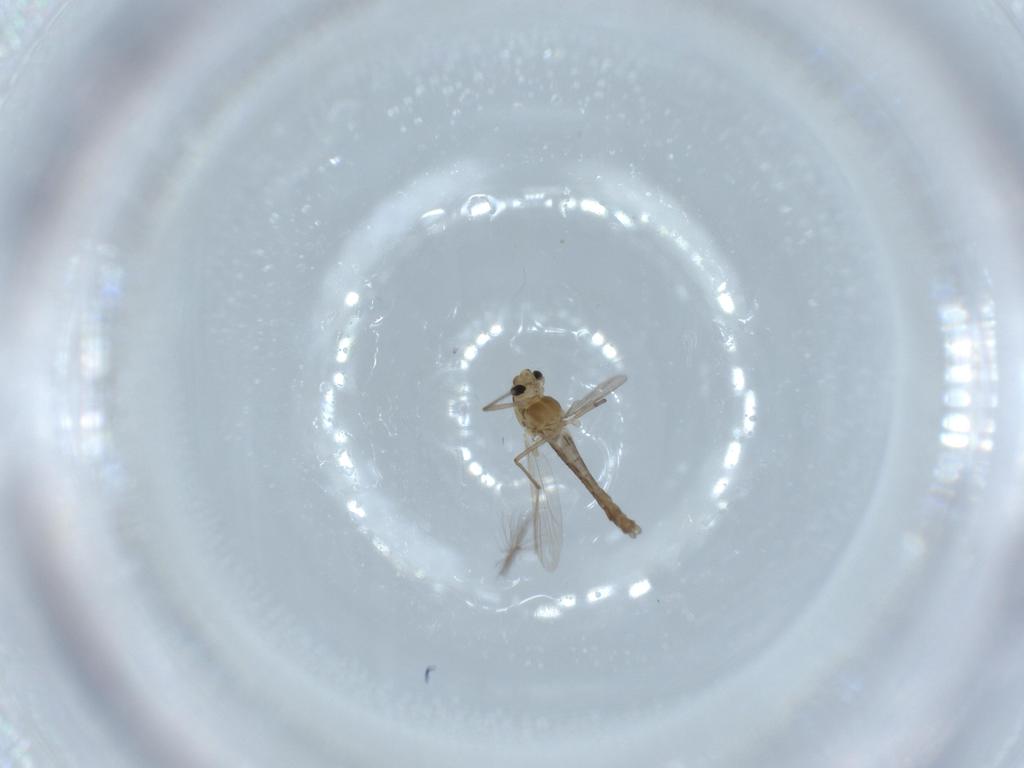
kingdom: Animalia
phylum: Arthropoda
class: Insecta
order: Diptera
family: Chironomidae
